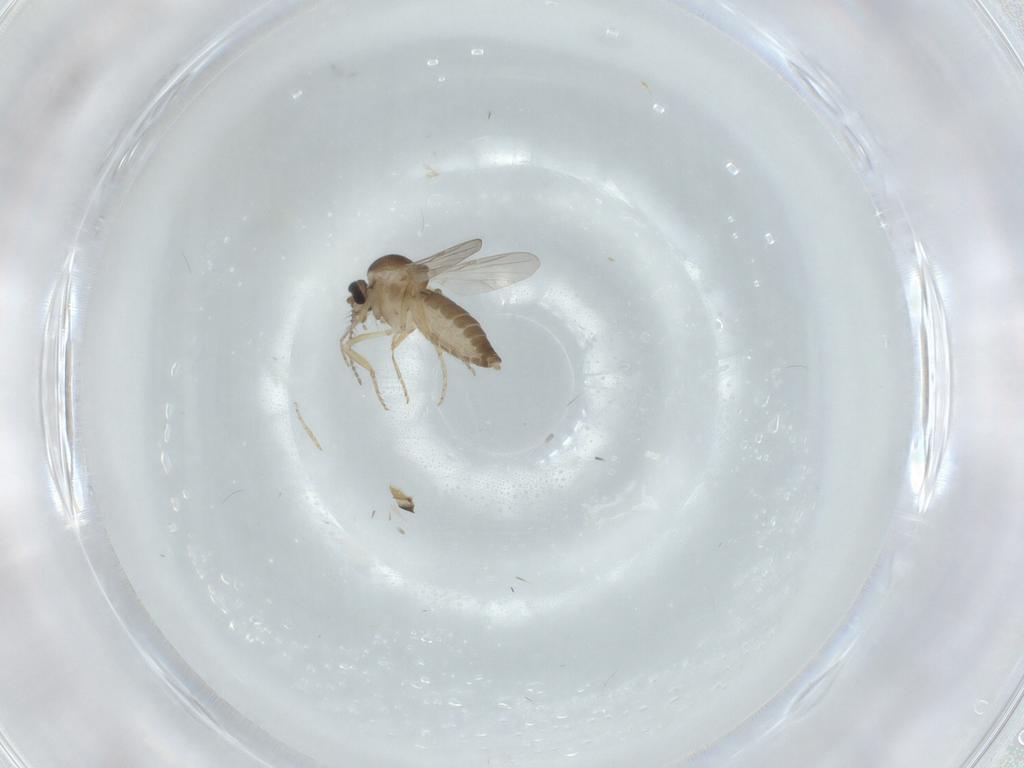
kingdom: Animalia
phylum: Arthropoda
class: Insecta
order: Diptera
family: Ceratopogonidae
